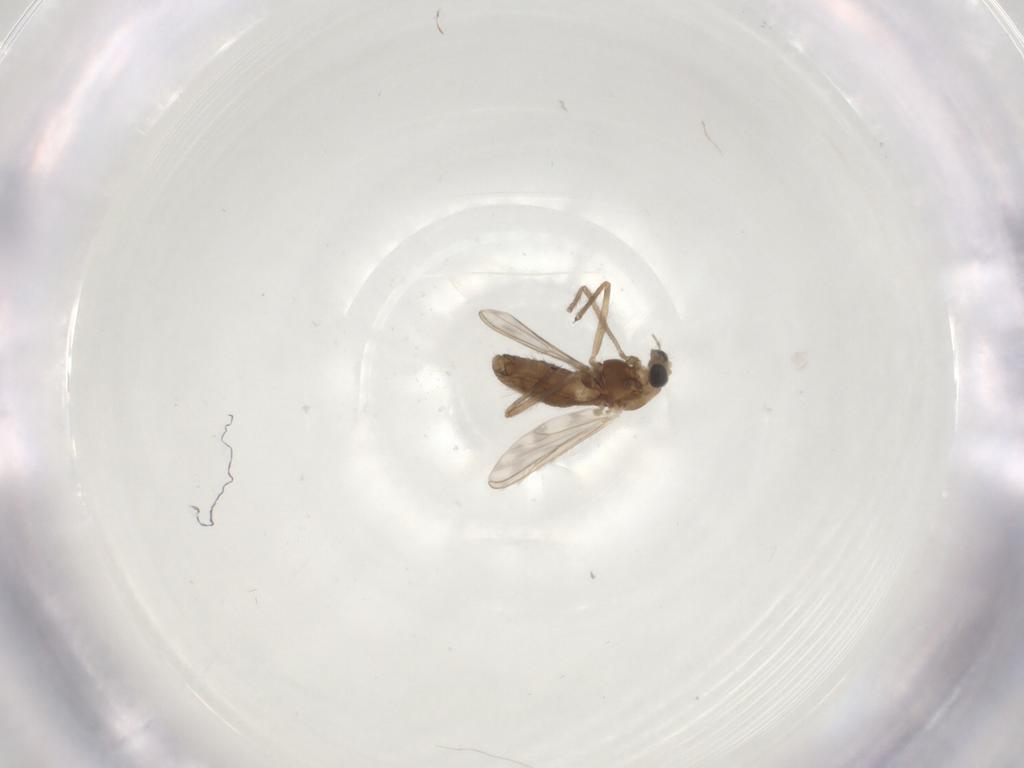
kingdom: Animalia
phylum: Arthropoda
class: Insecta
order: Diptera
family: Chironomidae
